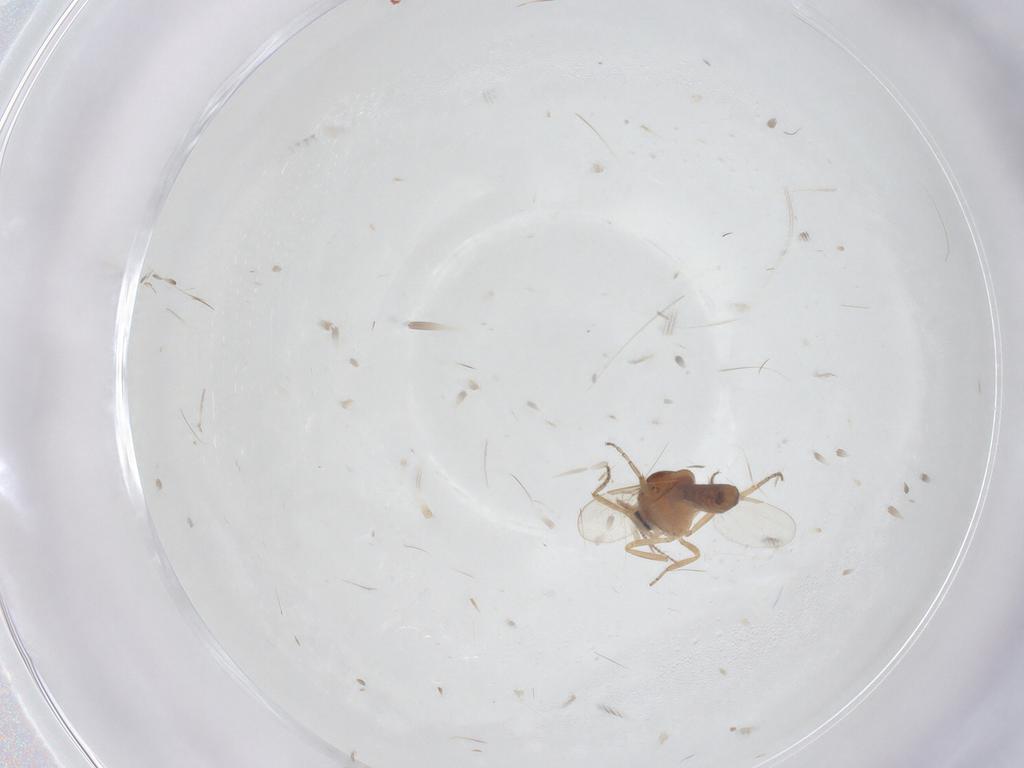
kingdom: Animalia
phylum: Arthropoda
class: Insecta
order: Diptera
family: Ceratopogonidae
